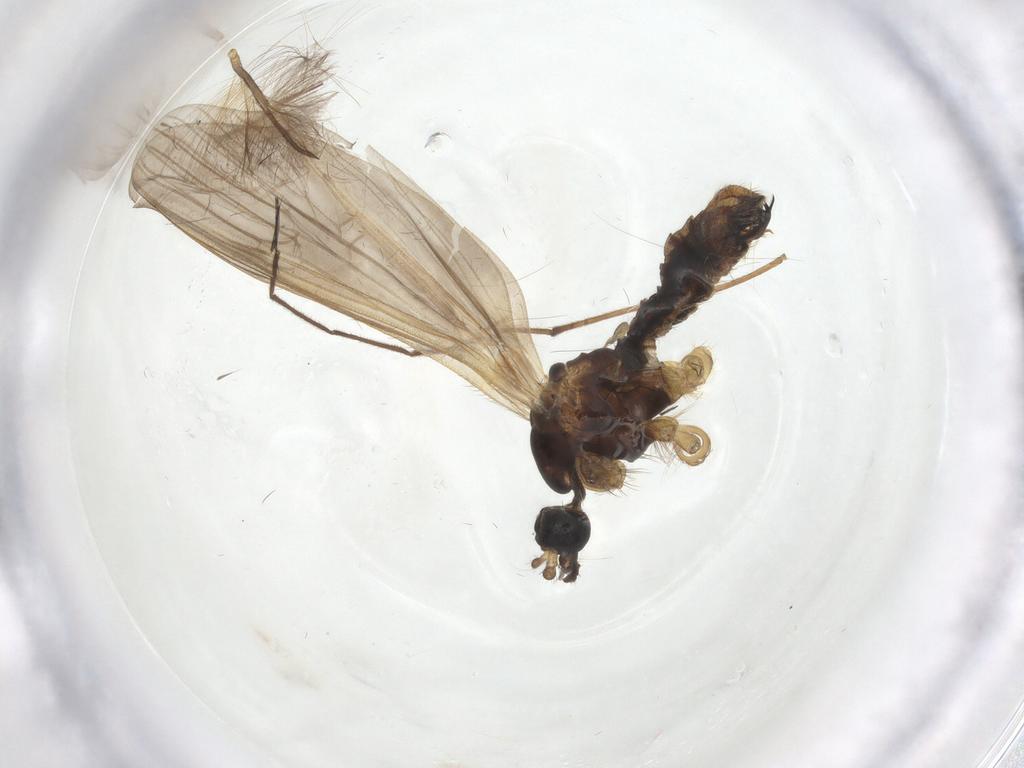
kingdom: Animalia
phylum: Arthropoda
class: Insecta
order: Diptera
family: Phoridae
